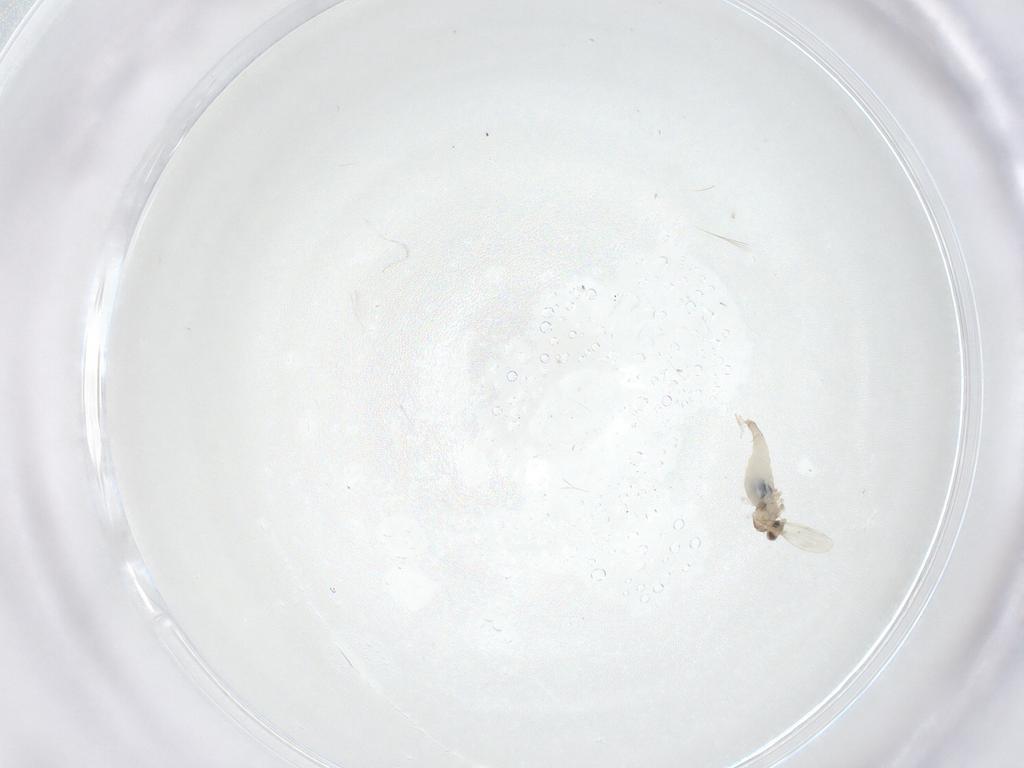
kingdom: Animalia
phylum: Arthropoda
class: Insecta
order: Diptera
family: Cecidomyiidae
